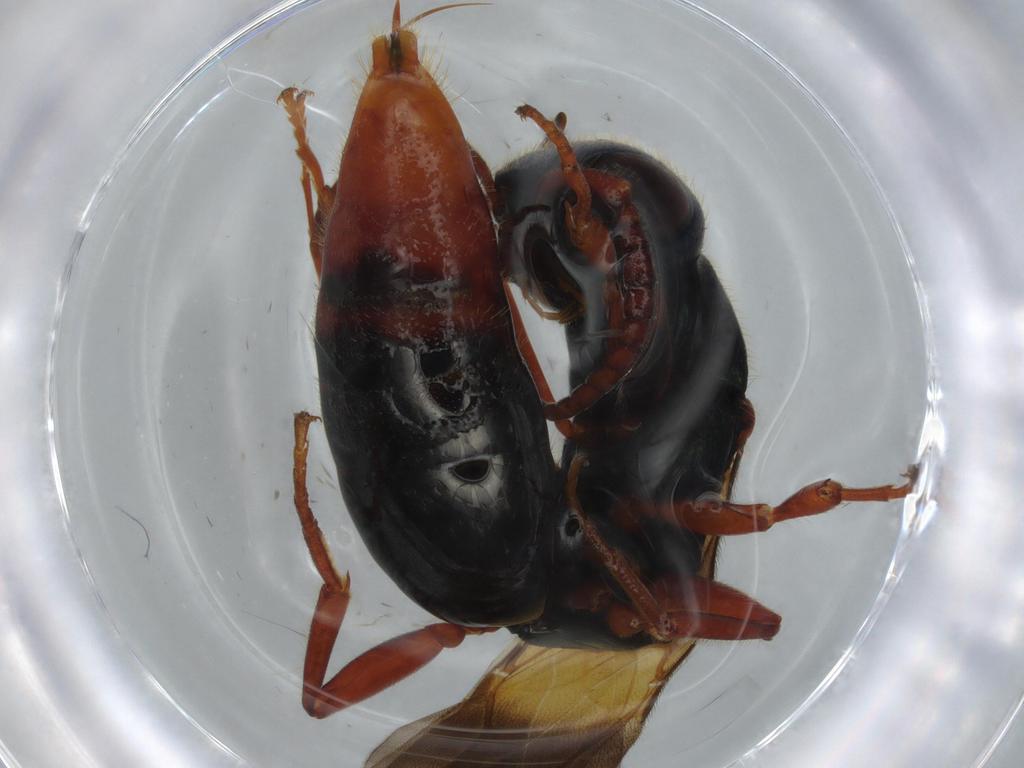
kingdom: Animalia
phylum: Arthropoda
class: Insecta
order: Hymenoptera
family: Bethylidae
